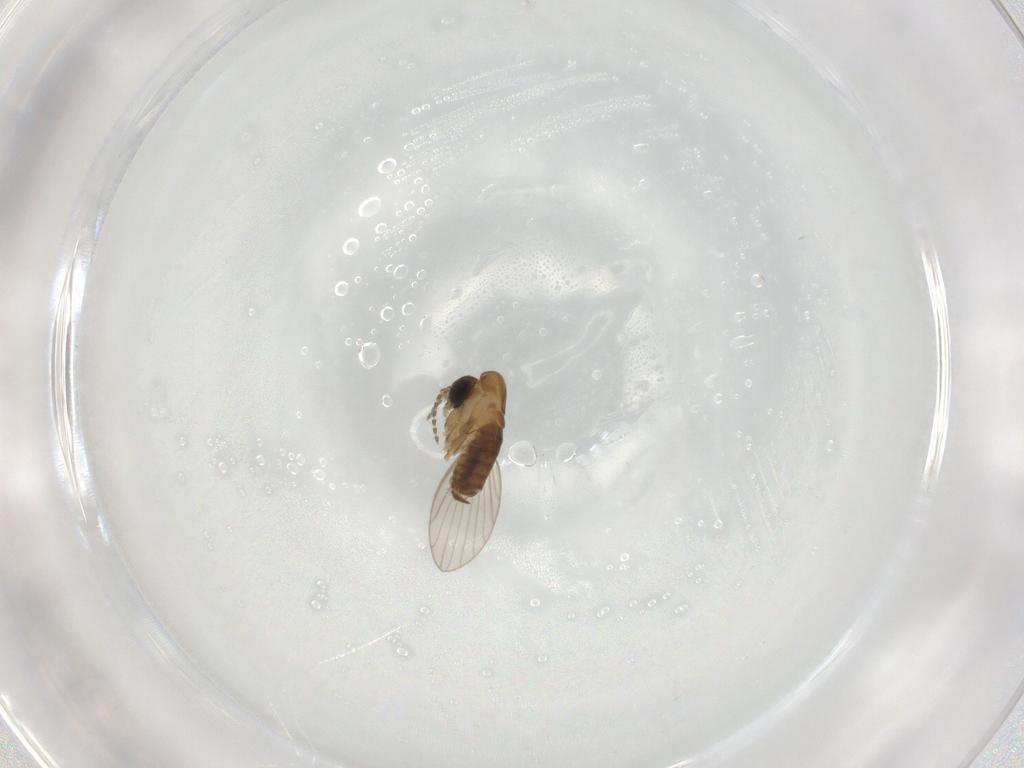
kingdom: Animalia
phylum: Arthropoda
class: Insecta
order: Diptera
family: Psychodidae
